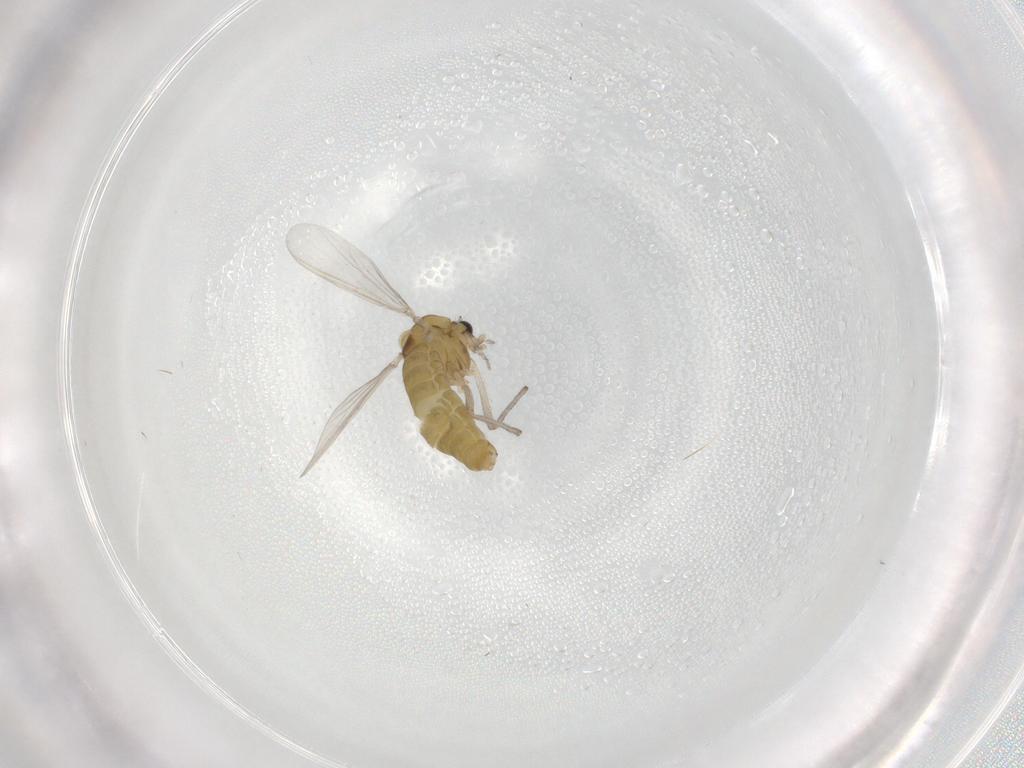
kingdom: Animalia
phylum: Arthropoda
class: Insecta
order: Diptera
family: Chironomidae
